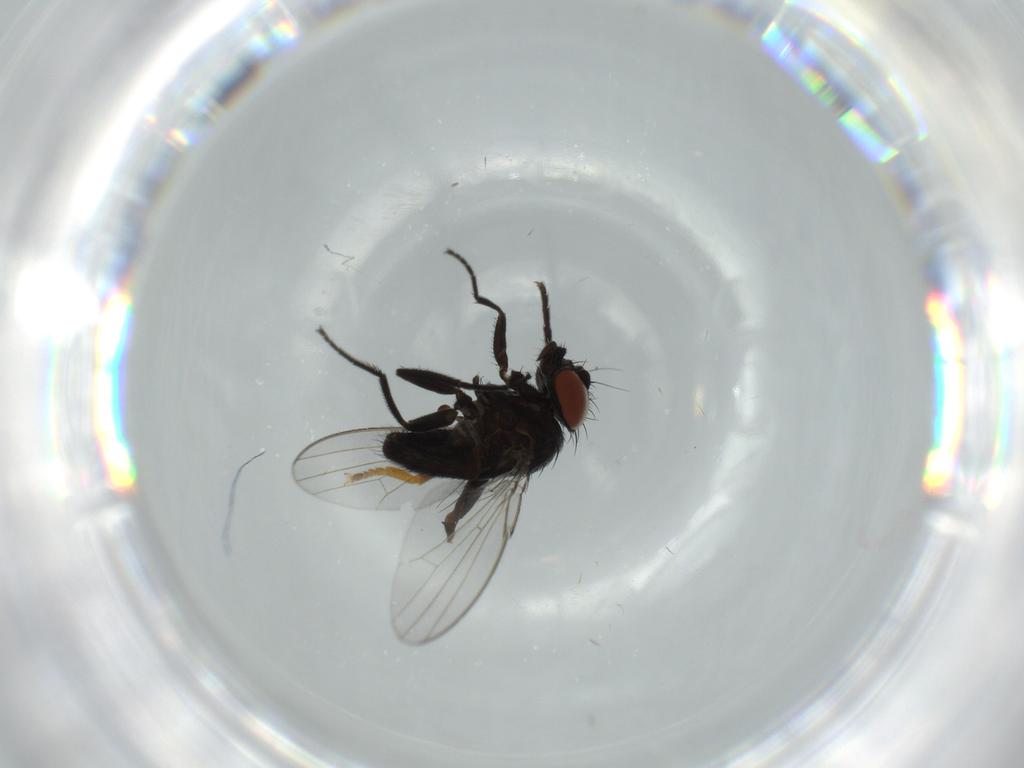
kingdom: Animalia
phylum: Arthropoda
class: Insecta
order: Diptera
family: Milichiidae
